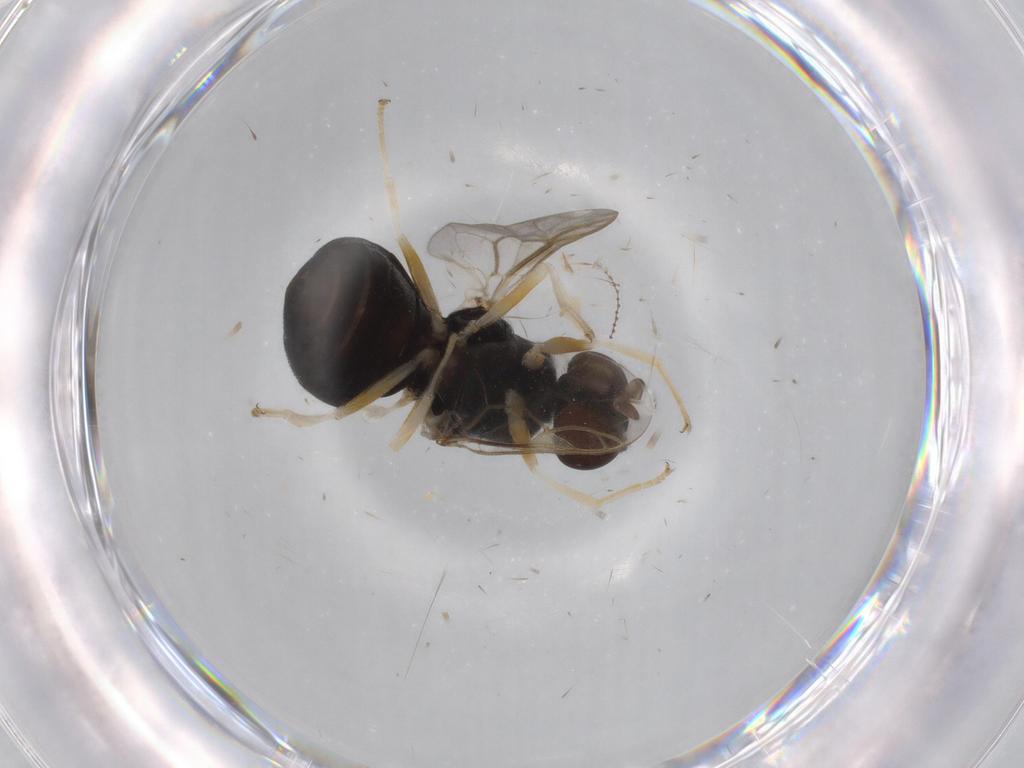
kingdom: Animalia
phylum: Arthropoda
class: Insecta
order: Diptera
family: Stratiomyidae
